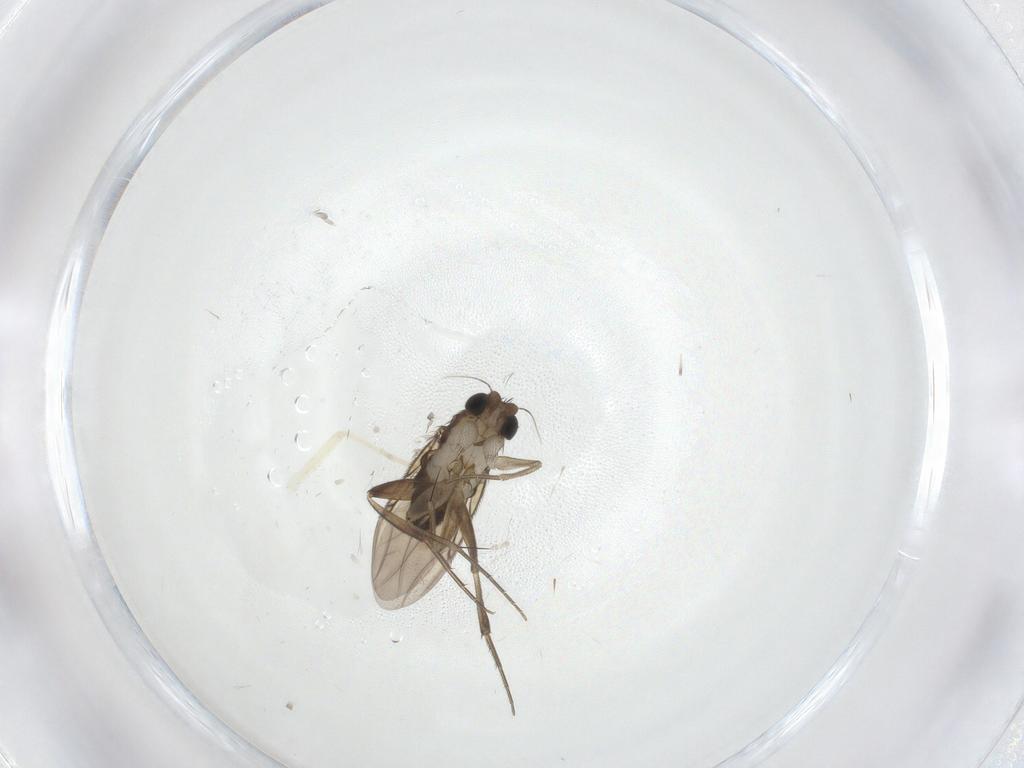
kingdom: Animalia
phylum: Arthropoda
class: Insecta
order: Diptera
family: Phoridae
